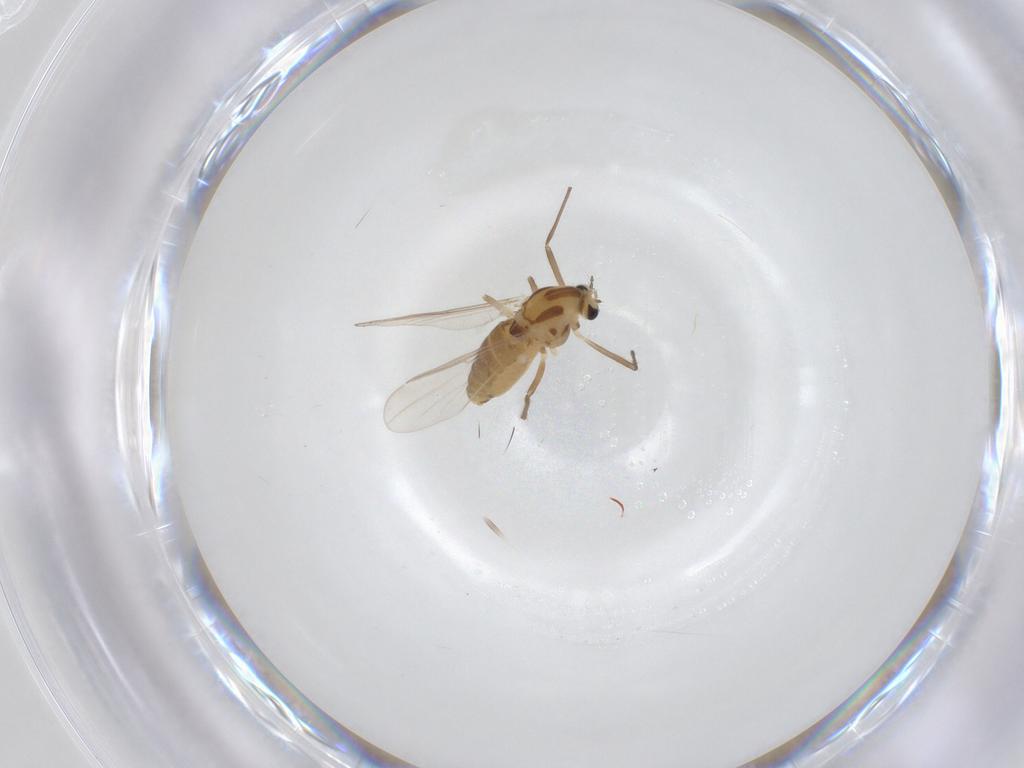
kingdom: Animalia
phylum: Arthropoda
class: Insecta
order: Diptera
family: Chironomidae
